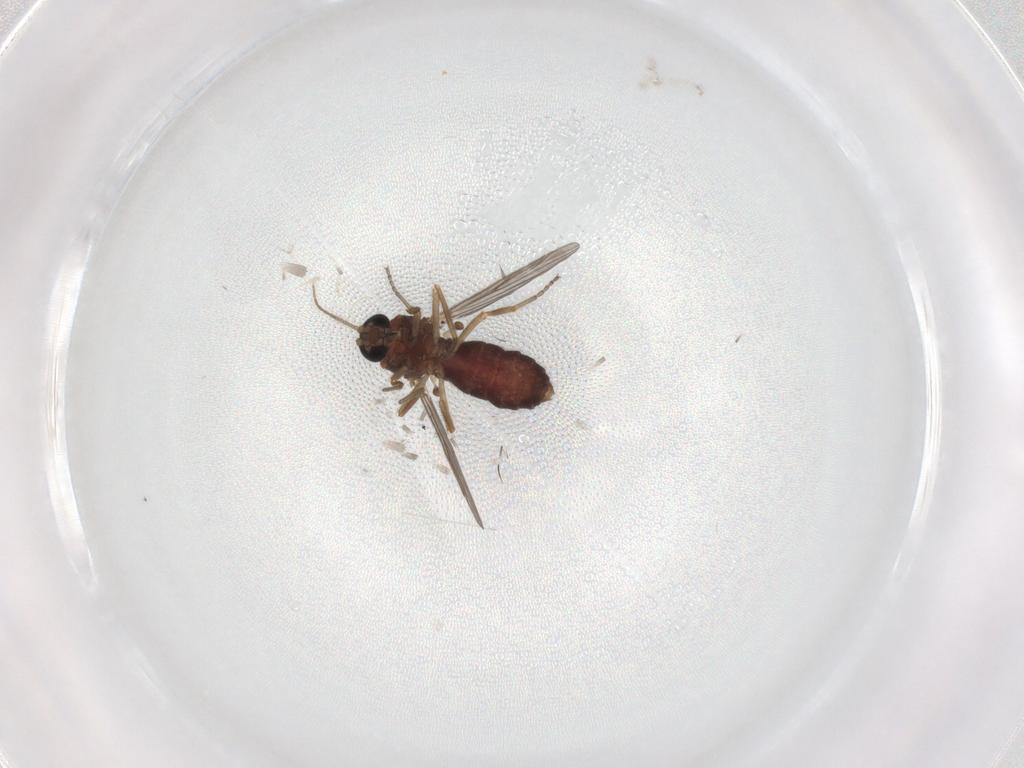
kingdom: Animalia
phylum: Arthropoda
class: Insecta
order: Diptera
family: Ceratopogonidae
